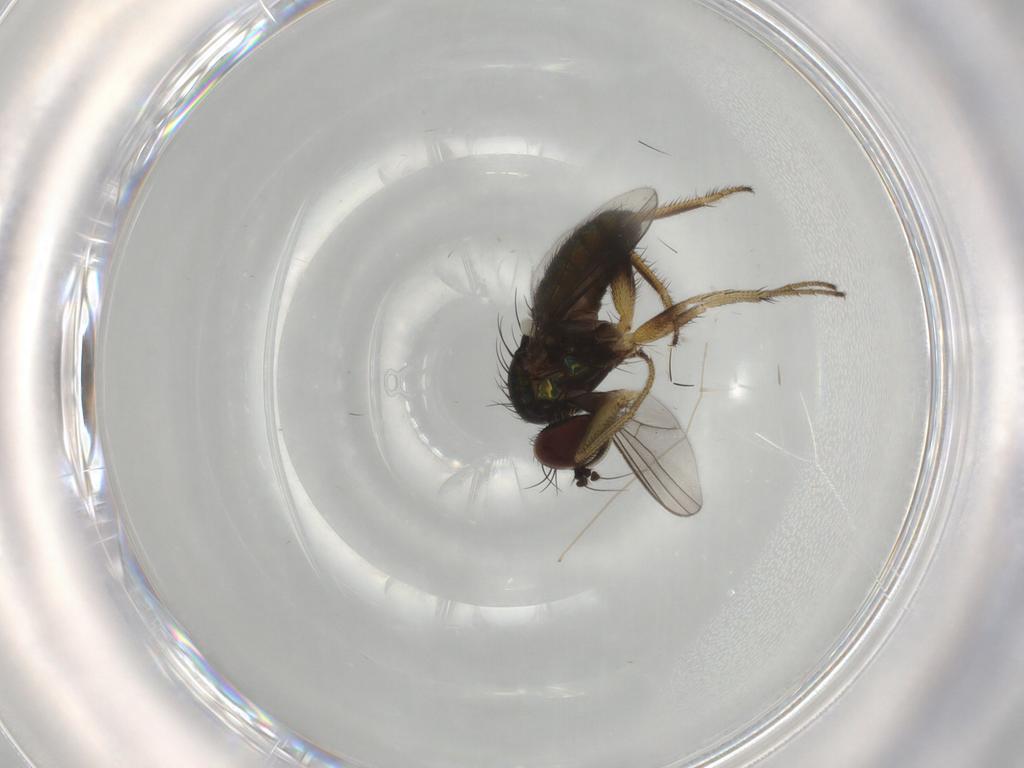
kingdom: Animalia
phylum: Arthropoda
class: Insecta
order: Diptera
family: Dolichopodidae
